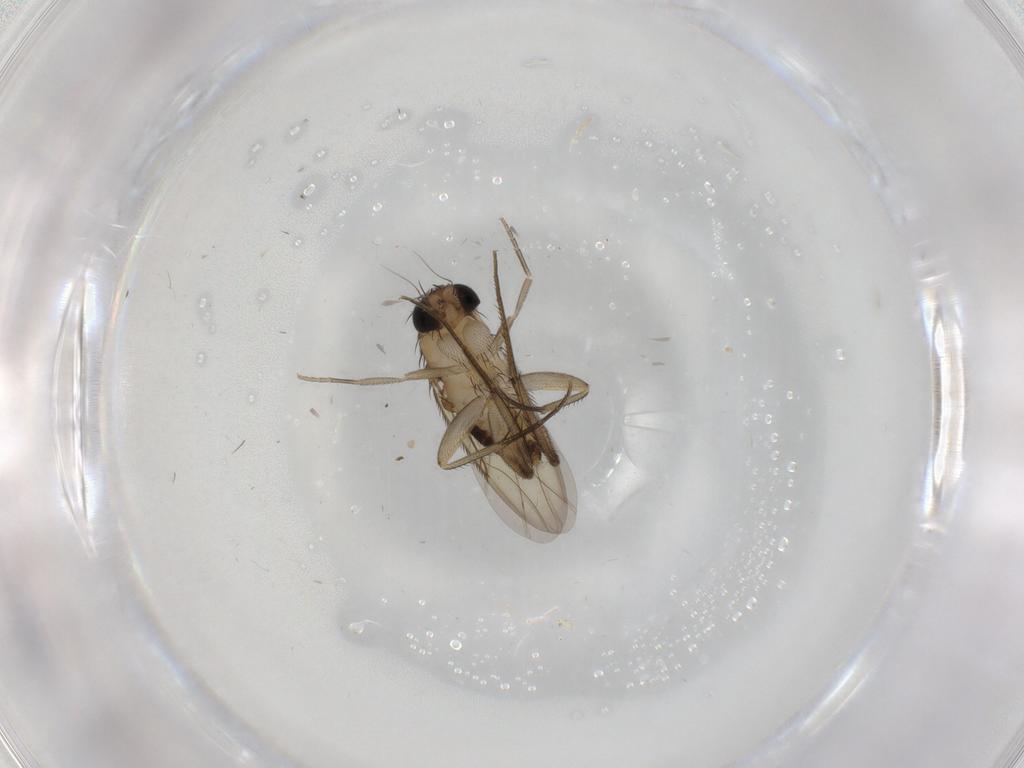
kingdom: Animalia
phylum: Arthropoda
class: Insecta
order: Diptera
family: Phoridae
